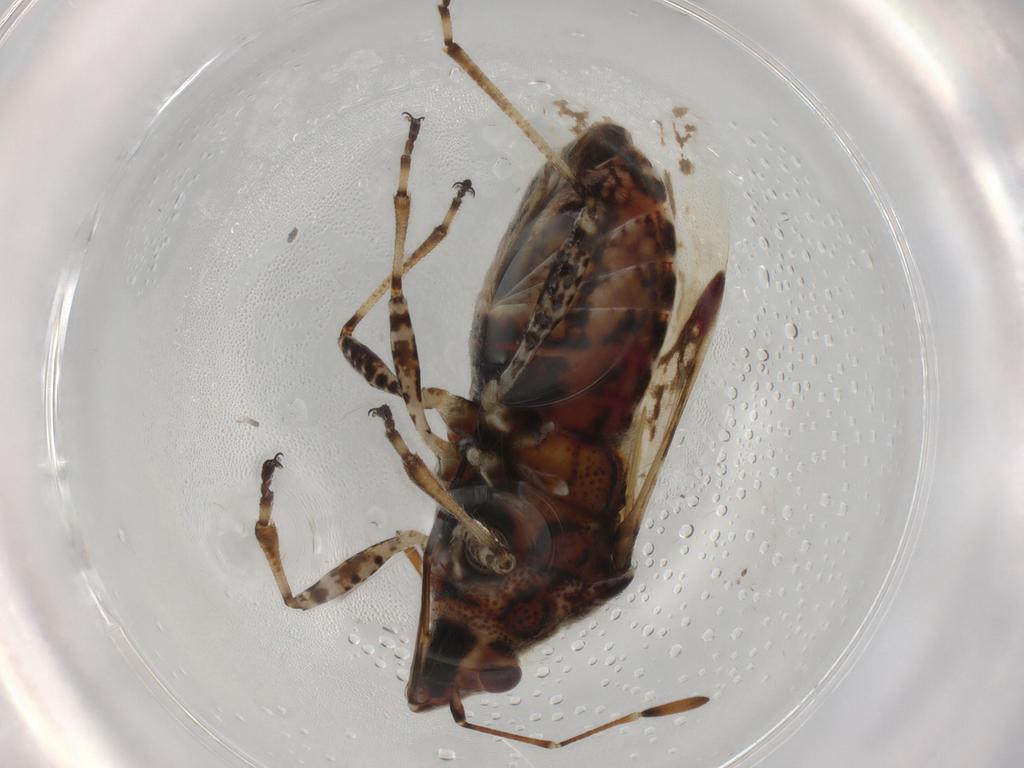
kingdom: Animalia
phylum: Arthropoda
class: Insecta
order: Hemiptera
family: Lygaeidae
